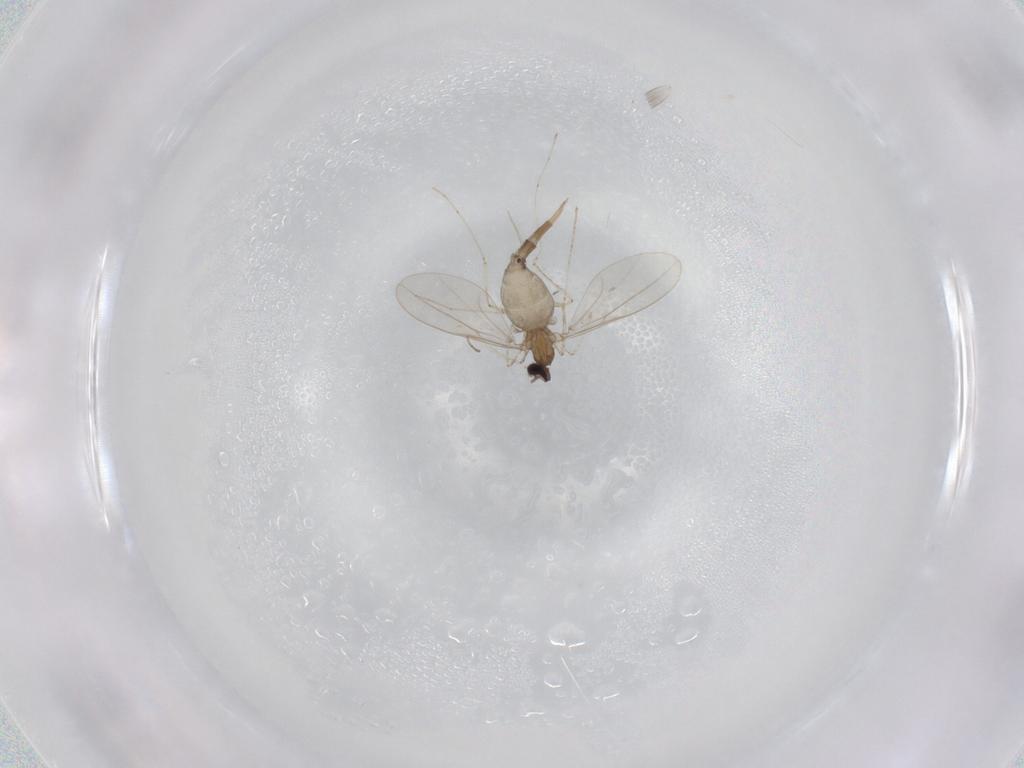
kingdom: Animalia
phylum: Arthropoda
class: Insecta
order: Diptera
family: Cecidomyiidae
